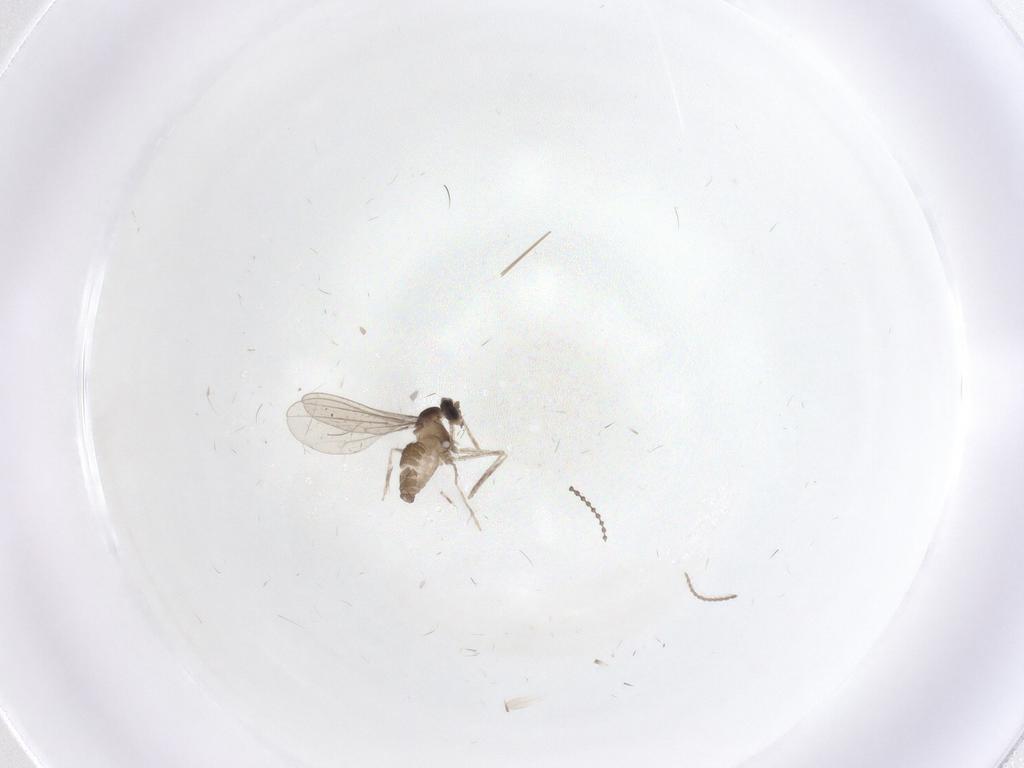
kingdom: Animalia
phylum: Arthropoda
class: Insecta
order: Diptera
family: Cecidomyiidae
